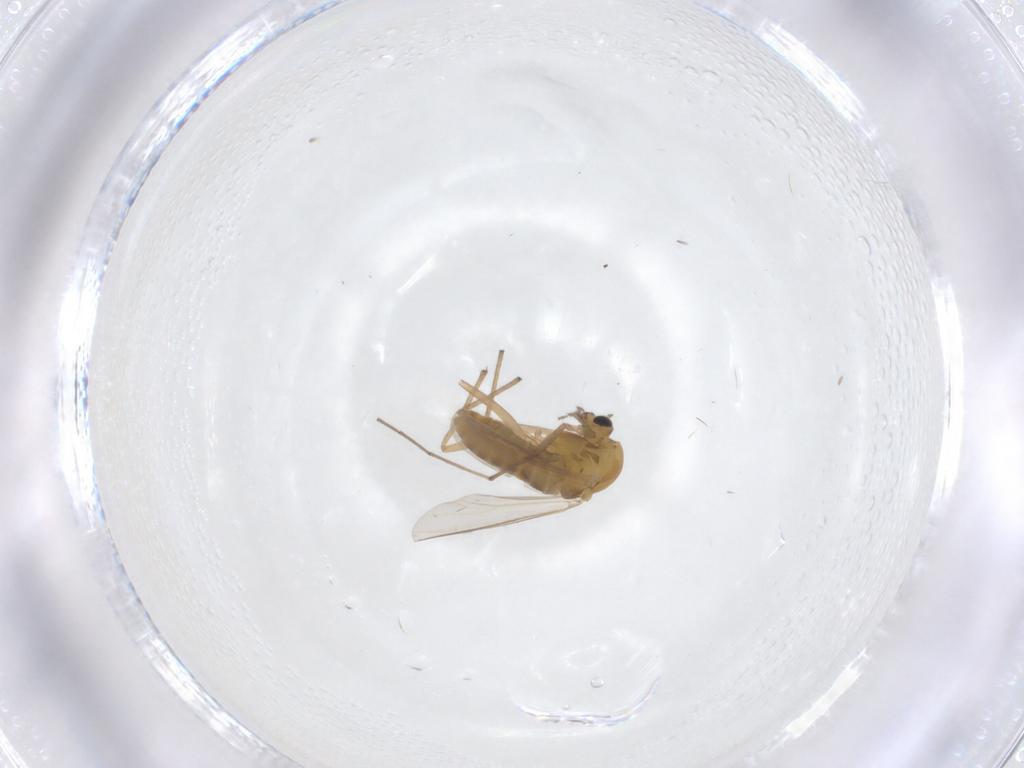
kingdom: Animalia
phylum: Arthropoda
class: Insecta
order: Diptera
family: Chironomidae
